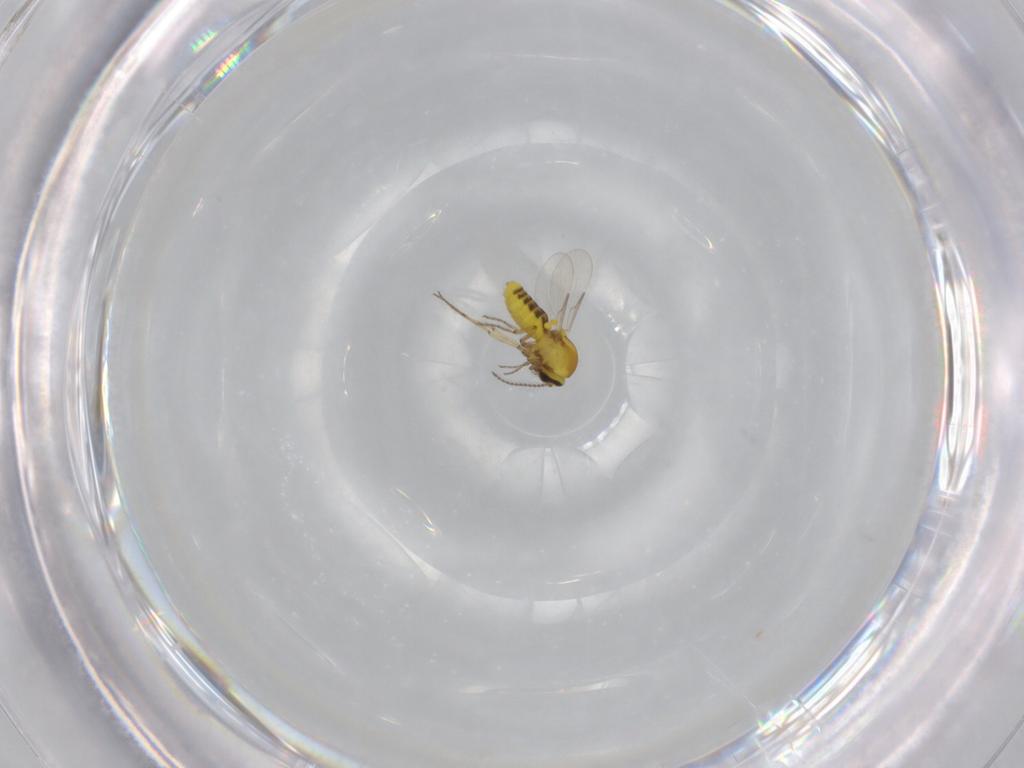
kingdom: Animalia
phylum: Arthropoda
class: Insecta
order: Diptera
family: Ceratopogonidae
